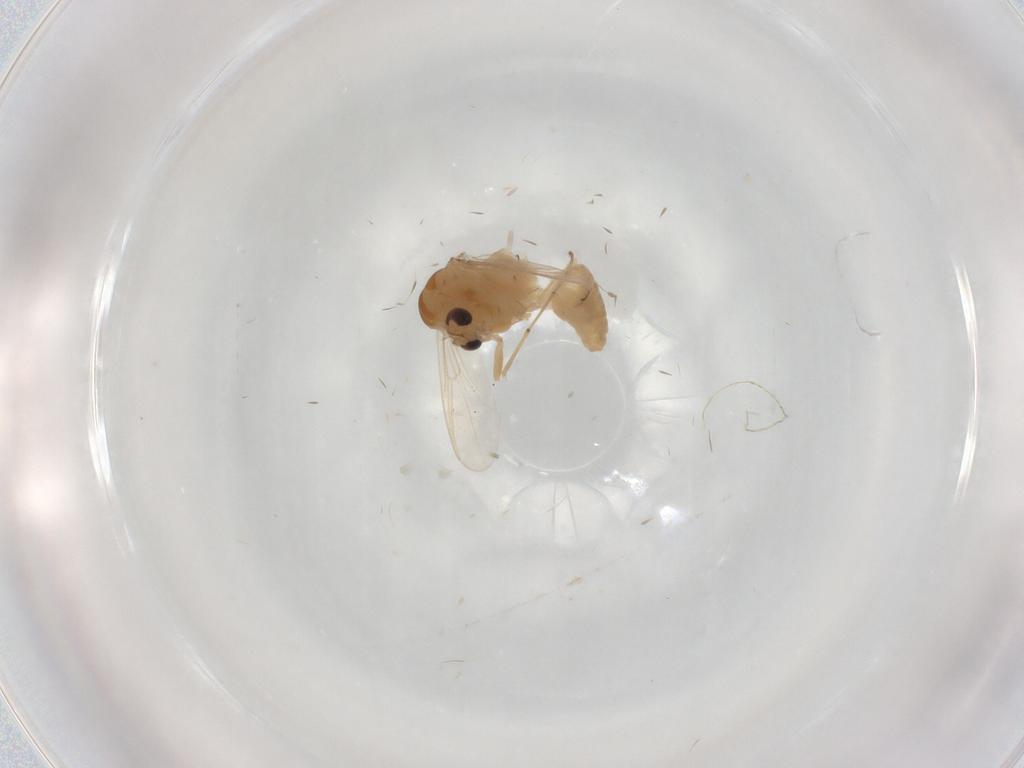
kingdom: Animalia
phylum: Arthropoda
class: Insecta
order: Diptera
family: Chironomidae
